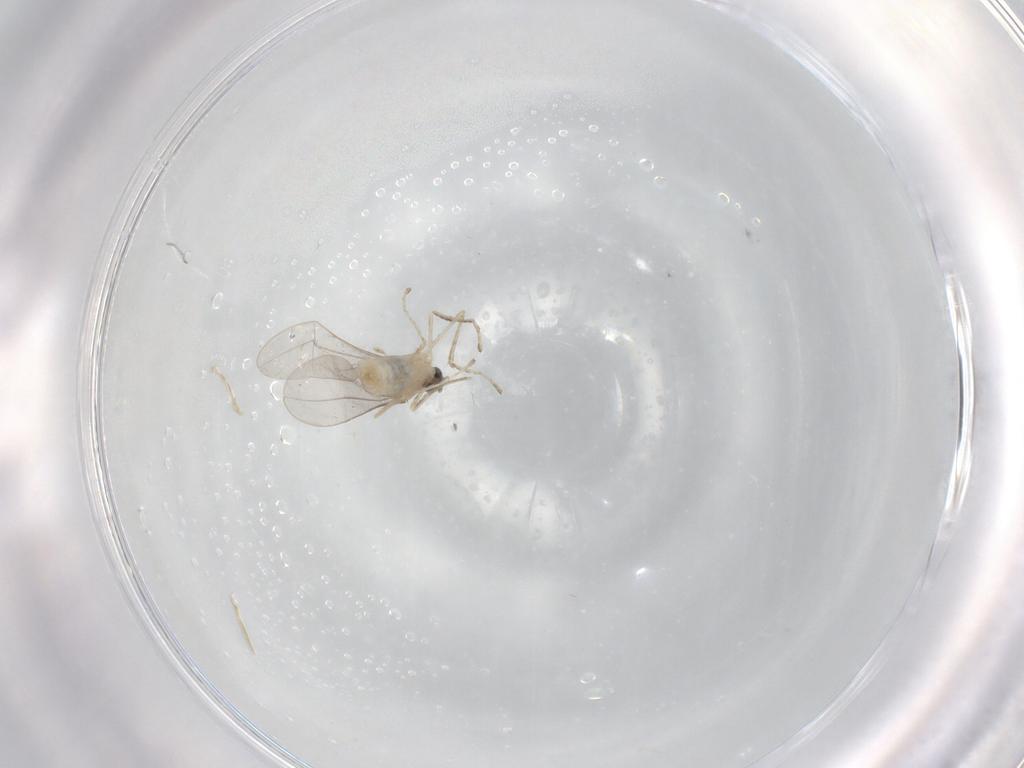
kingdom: Animalia
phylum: Arthropoda
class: Insecta
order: Diptera
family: Cecidomyiidae
